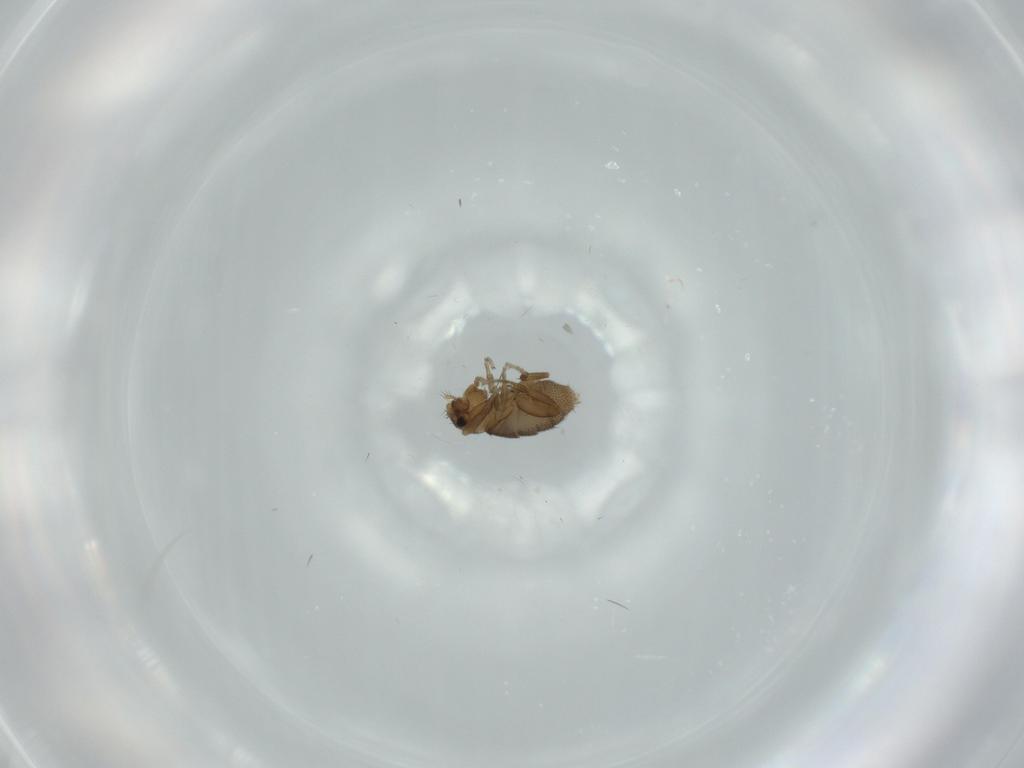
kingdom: Animalia
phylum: Arthropoda
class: Insecta
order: Diptera
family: Phoridae
